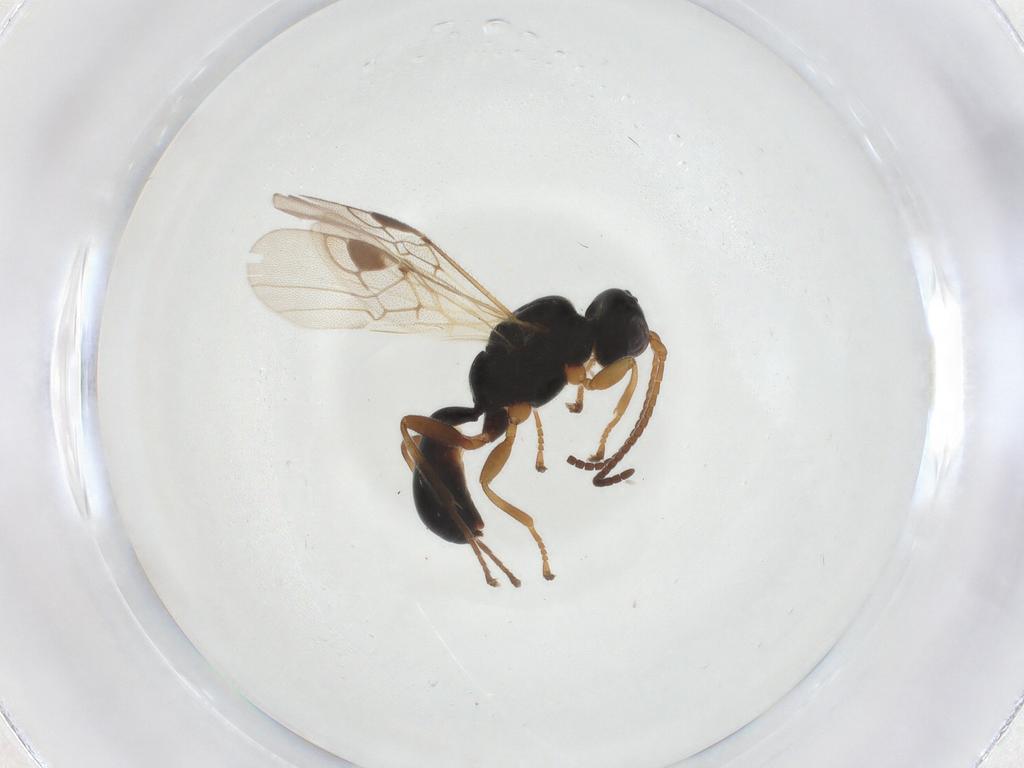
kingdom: Animalia
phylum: Arthropoda
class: Insecta
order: Hymenoptera
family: Braconidae
